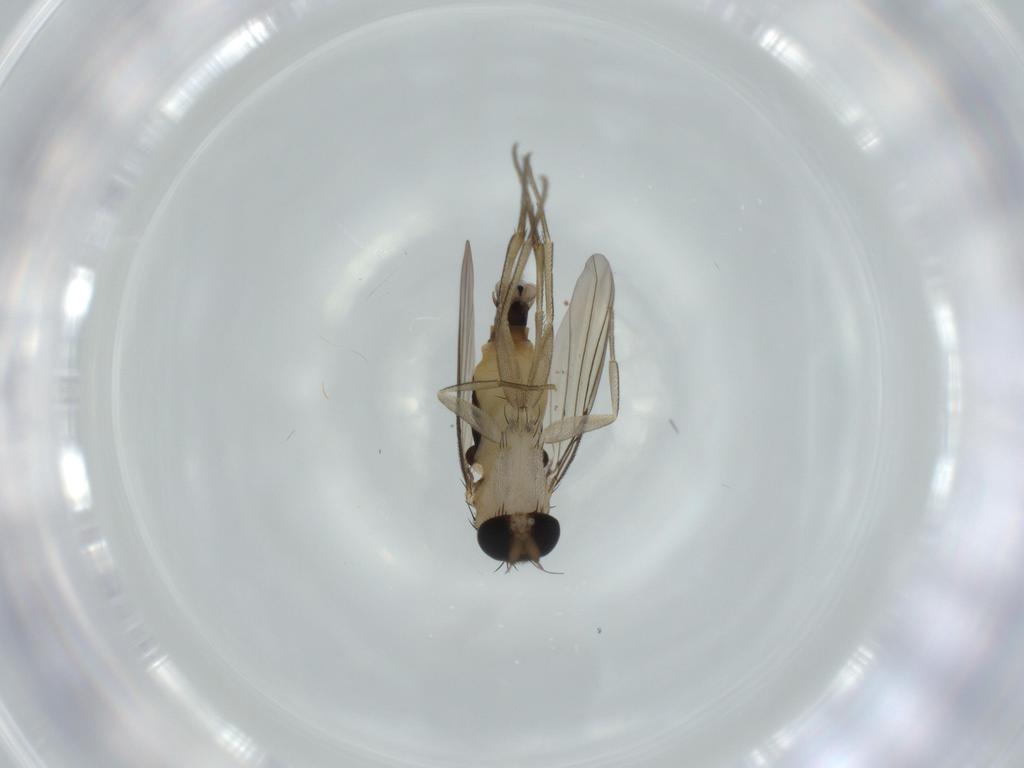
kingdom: Animalia
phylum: Arthropoda
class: Insecta
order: Diptera
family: Phoridae
